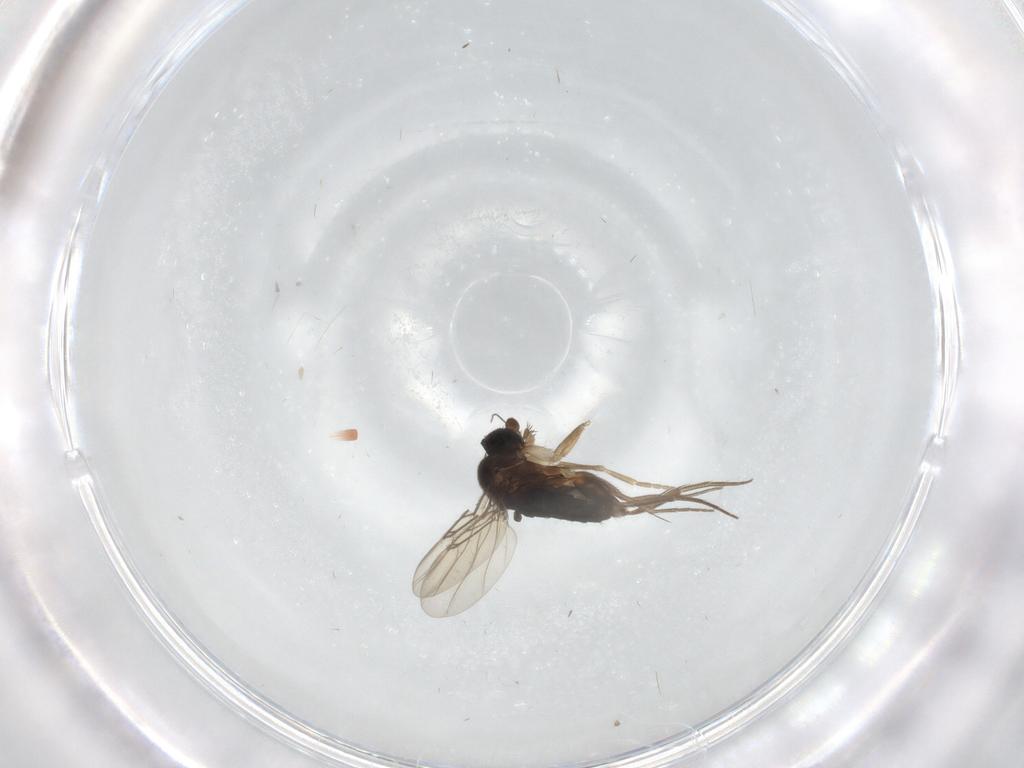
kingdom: Animalia
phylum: Arthropoda
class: Insecta
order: Diptera
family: Phoridae
